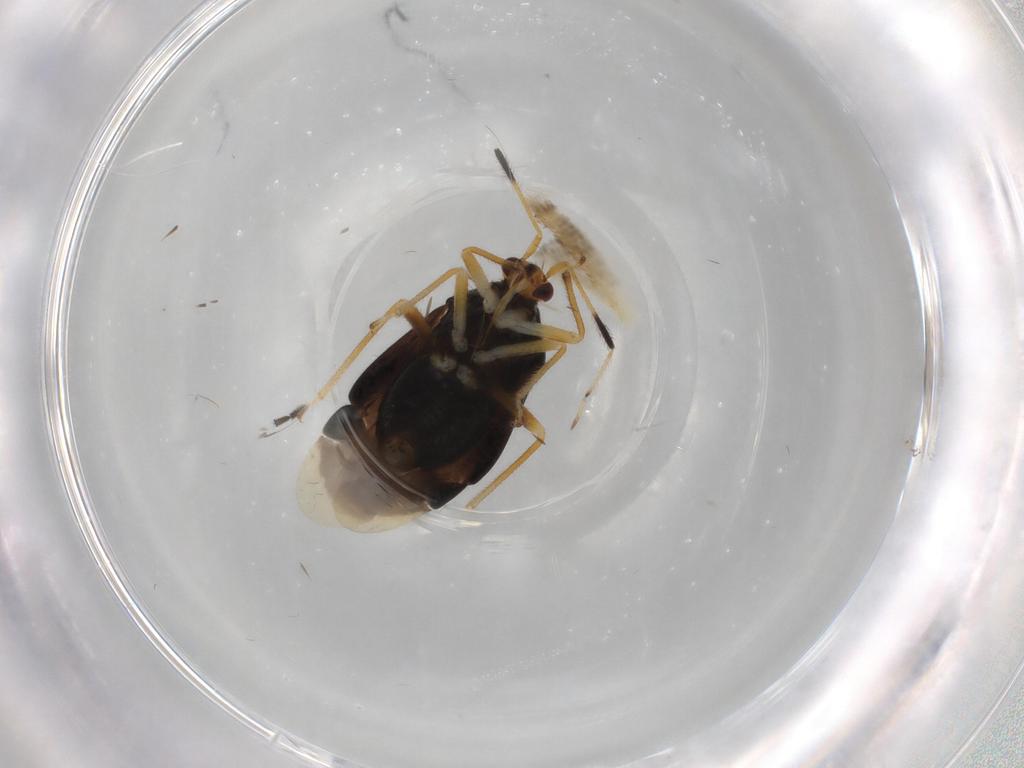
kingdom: Animalia
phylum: Arthropoda
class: Insecta
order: Hemiptera
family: Miridae
